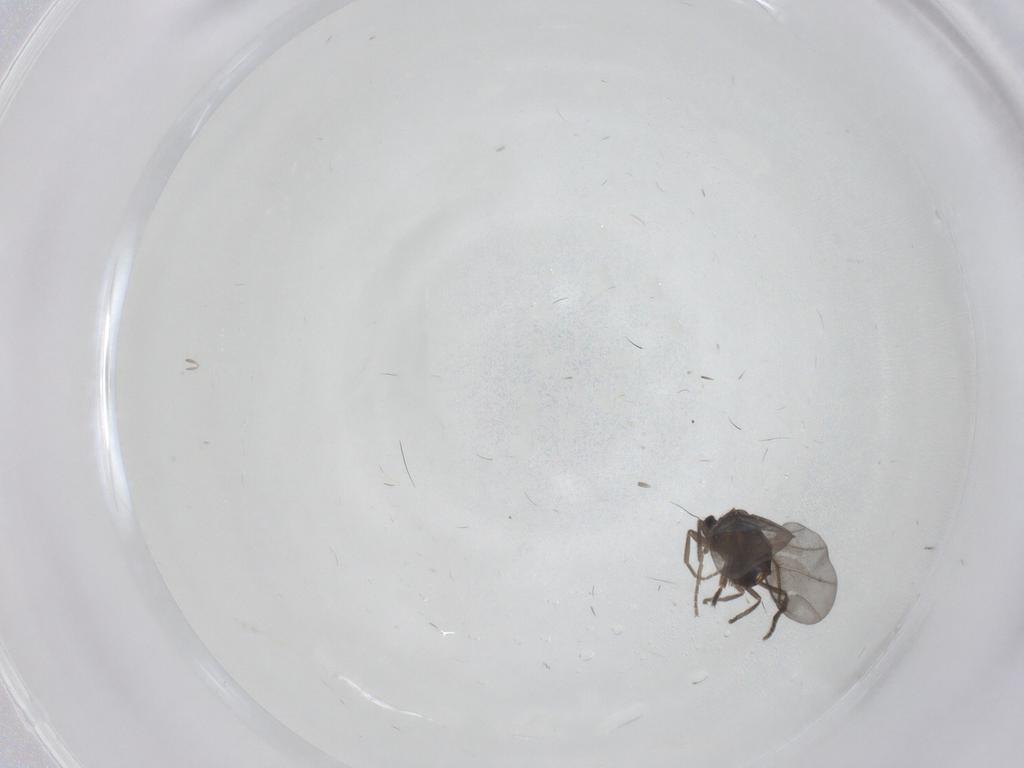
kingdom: Animalia
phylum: Arthropoda
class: Insecta
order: Diptera
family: Phoridae
